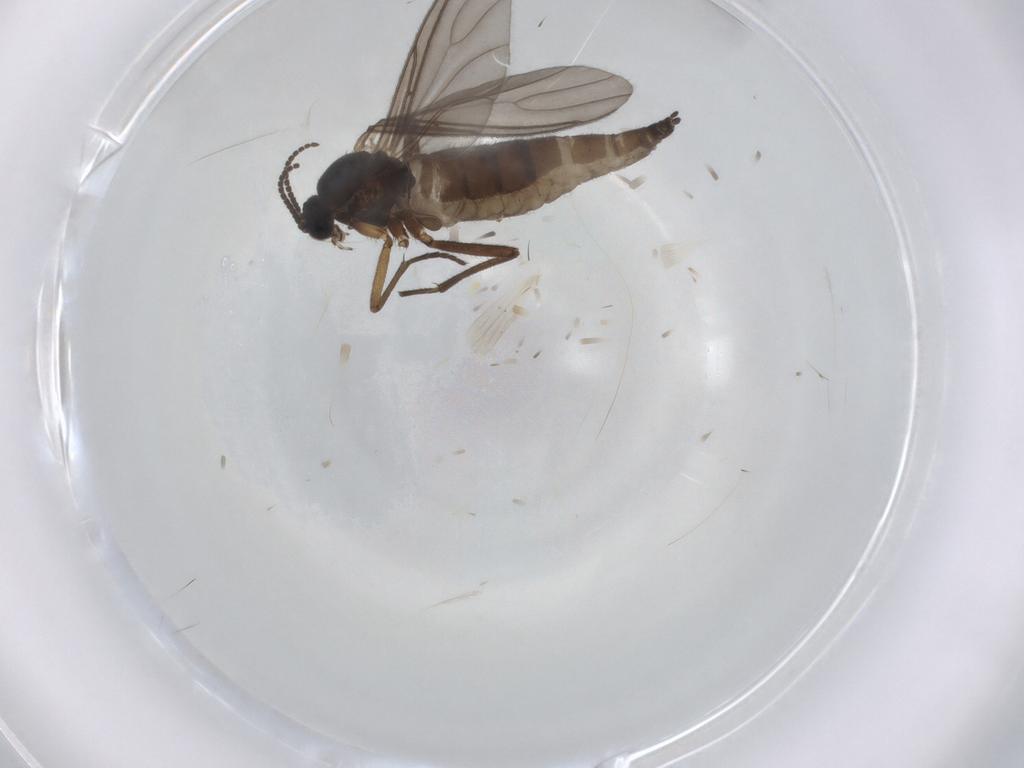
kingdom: Animalia
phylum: Arthropoda
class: Insecta
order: Diptera
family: Sciaridae
